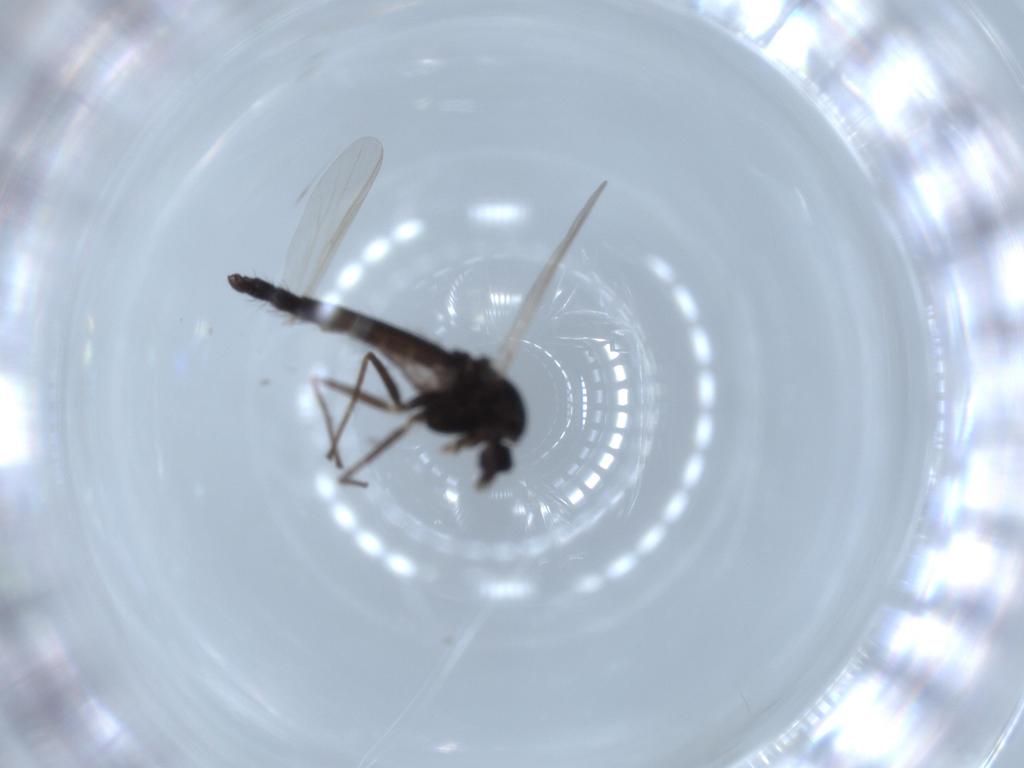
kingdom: Animalia
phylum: Arthropoda
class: Insecta
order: Diptera
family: Chironomidae
